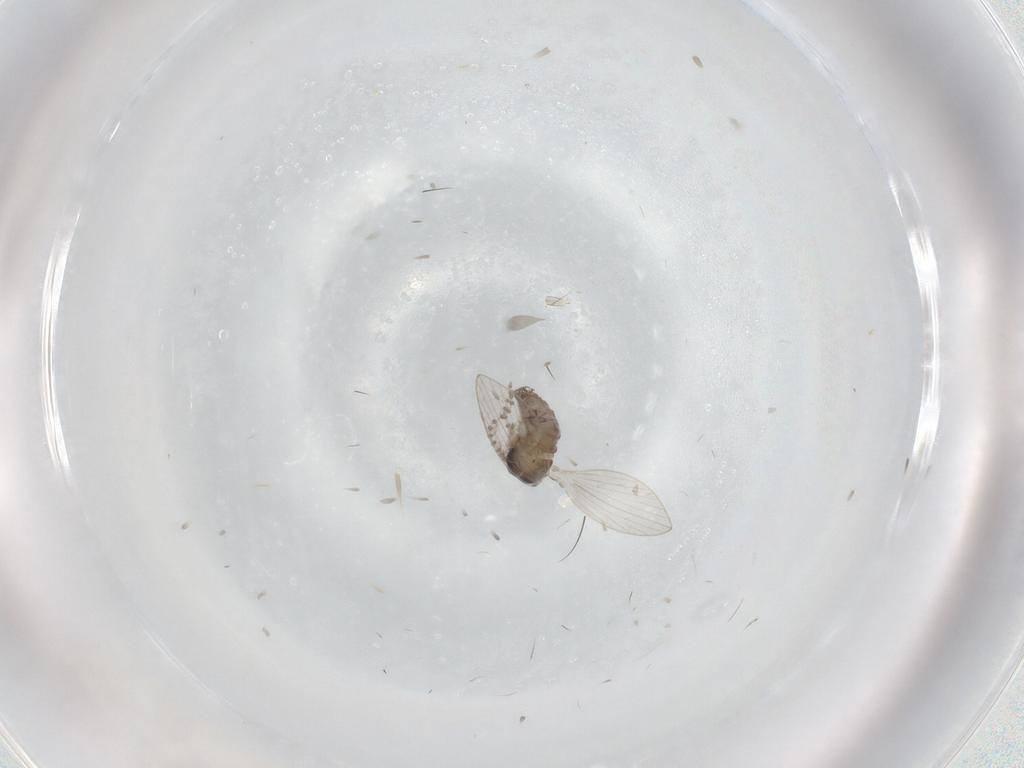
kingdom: Animalia
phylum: Arthropoda
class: Insecta
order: Diptera
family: Psychodidae
